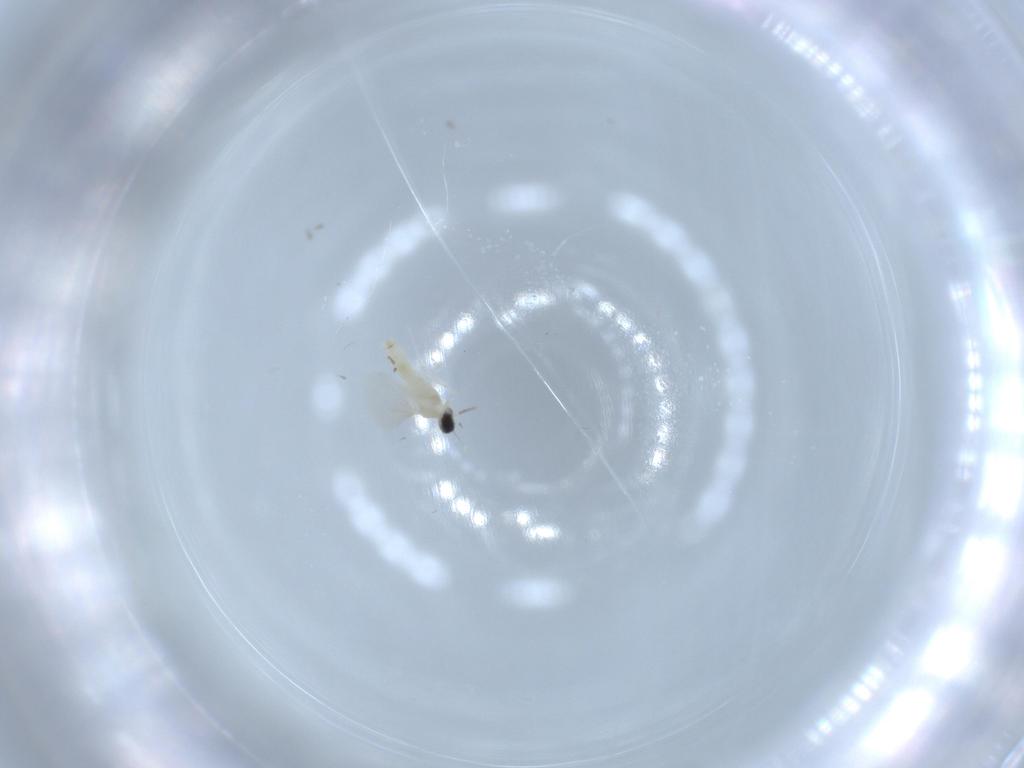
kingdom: Animalia
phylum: Arthropoda
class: Insecta
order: Diptera
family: Cecidomyiidae
